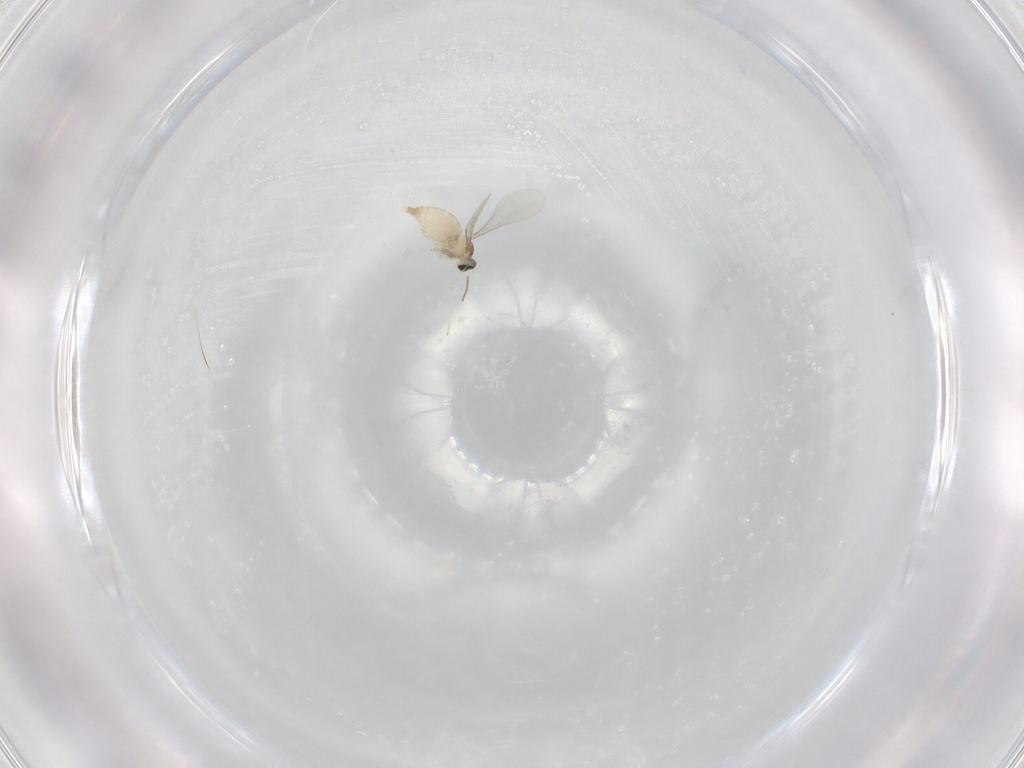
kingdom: Animalia
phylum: Arthropoda
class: Insecta
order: Diptera
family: Cecidomyiidae
